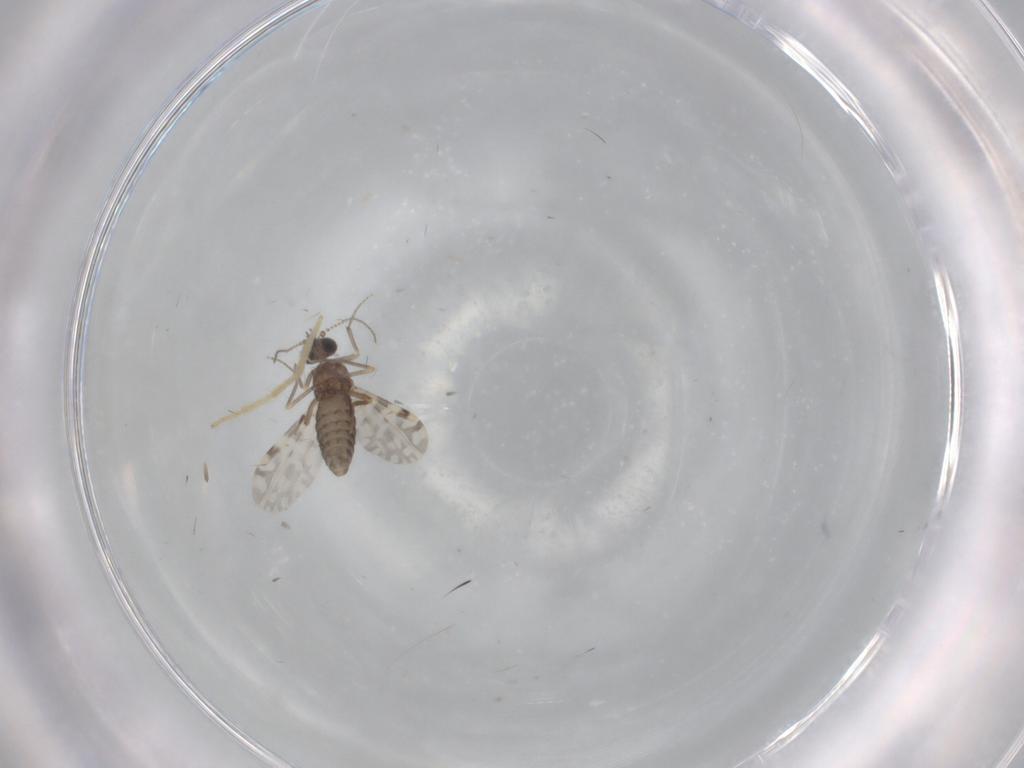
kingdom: Animalia
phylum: Arthropoda
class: Insecta
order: Diptera
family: Ceratopogonidae
